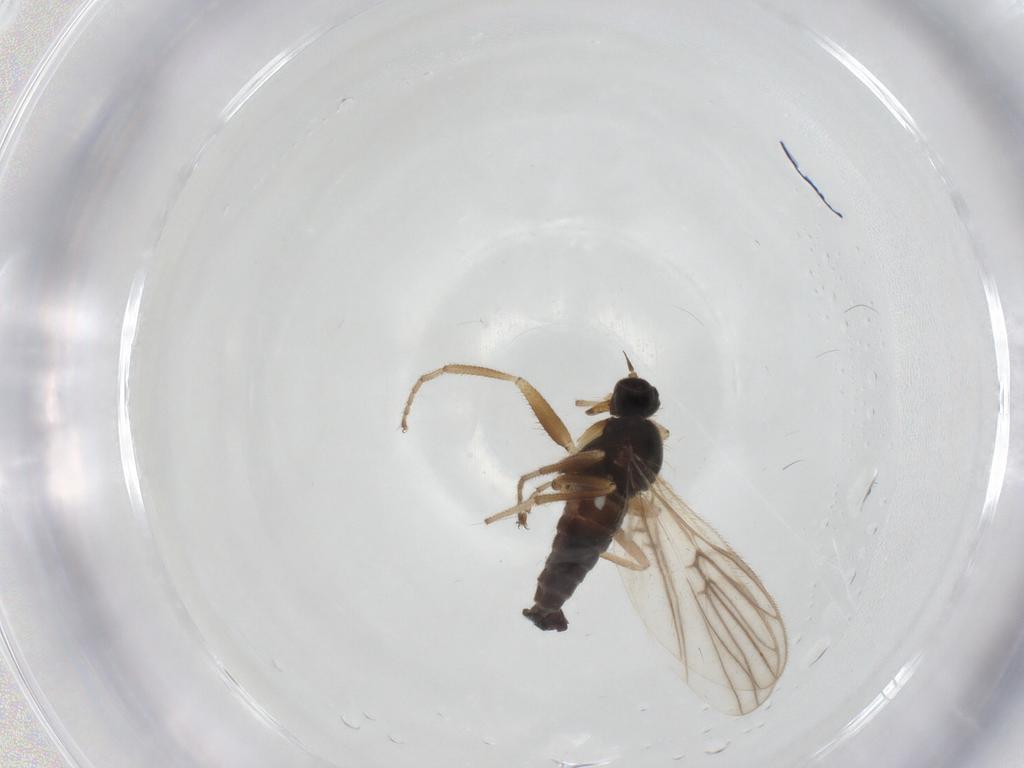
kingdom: Animalia
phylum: Arthropoda
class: Insecta
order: Diptera
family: Hybotidae
